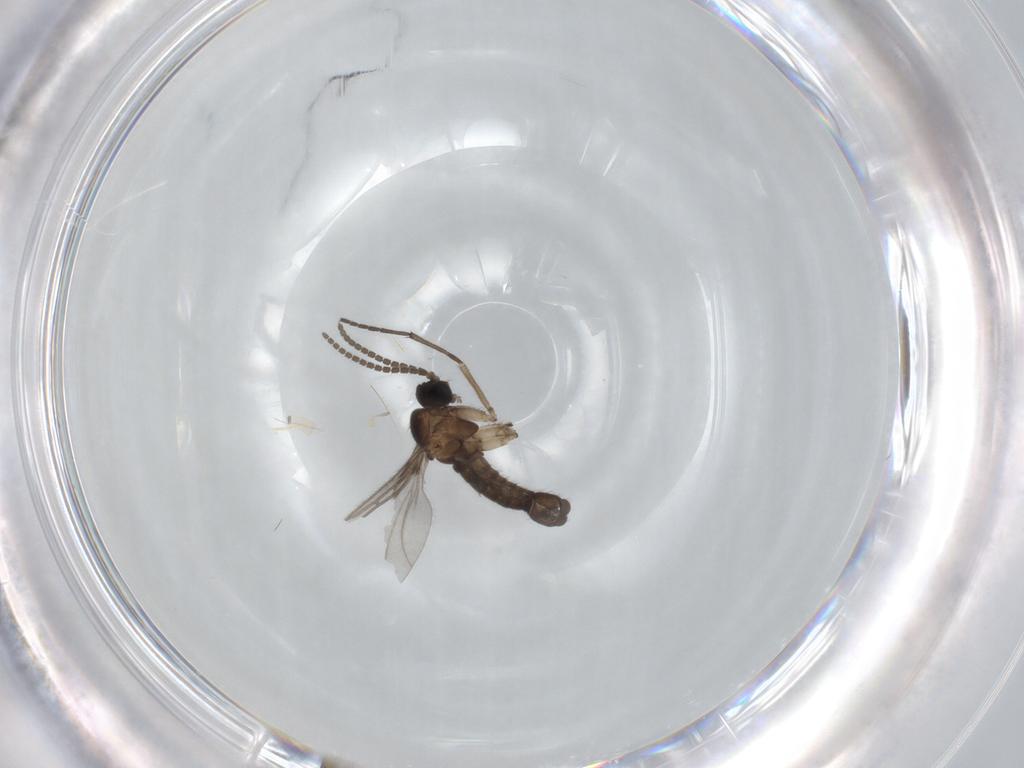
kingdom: Animalia
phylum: Arthropoda
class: Insecta
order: Diptera
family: Sciaridae
